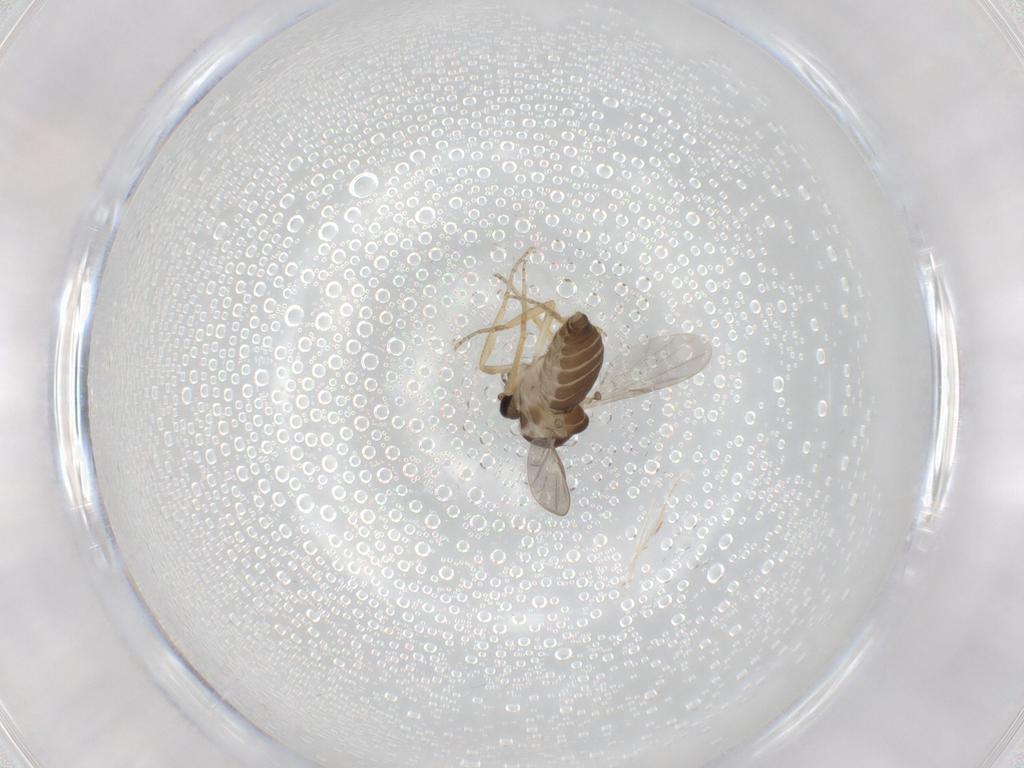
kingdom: Animalia
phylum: Arthropoda
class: Insecta
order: Diptera
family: Ceratopogonidae
